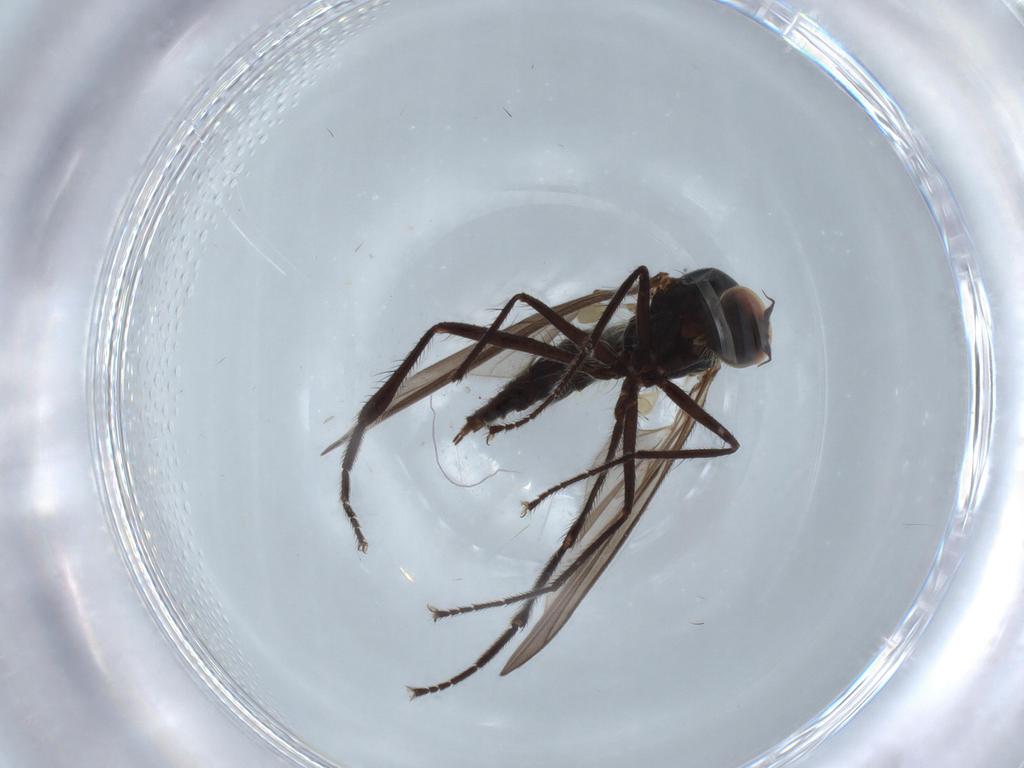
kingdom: Animalia
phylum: Arthropoda
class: Insecta
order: Diptera
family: Hybotidae
